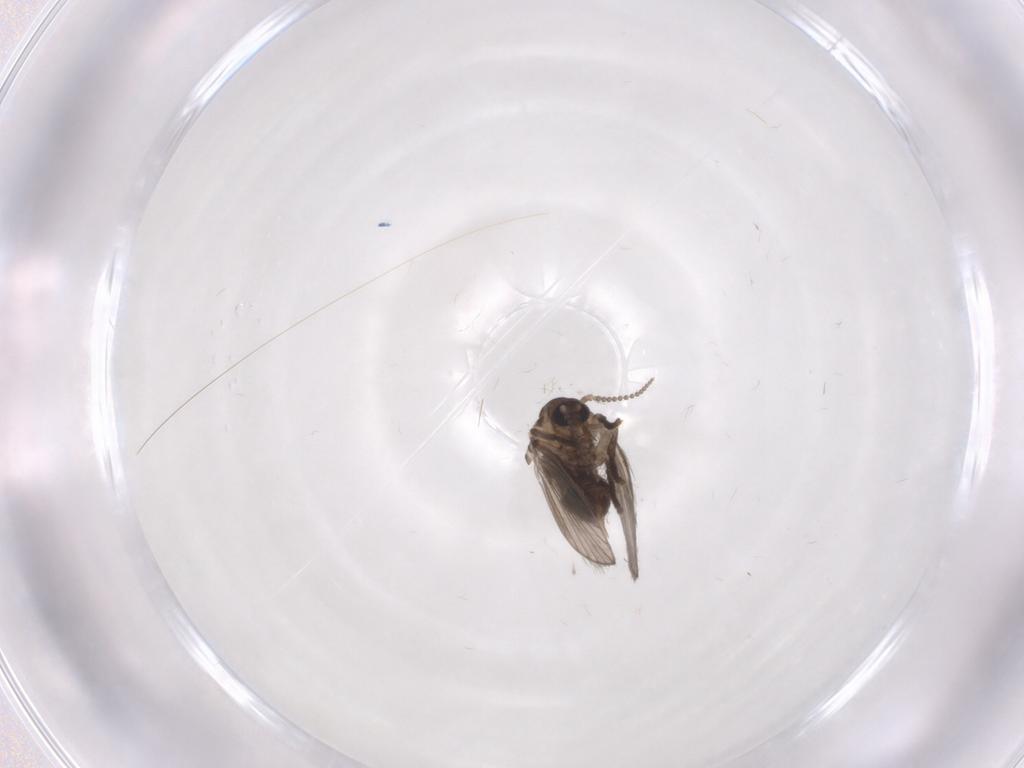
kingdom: Animalia
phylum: Arthropoda
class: Insecta
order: Diptera
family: Chironomidae
